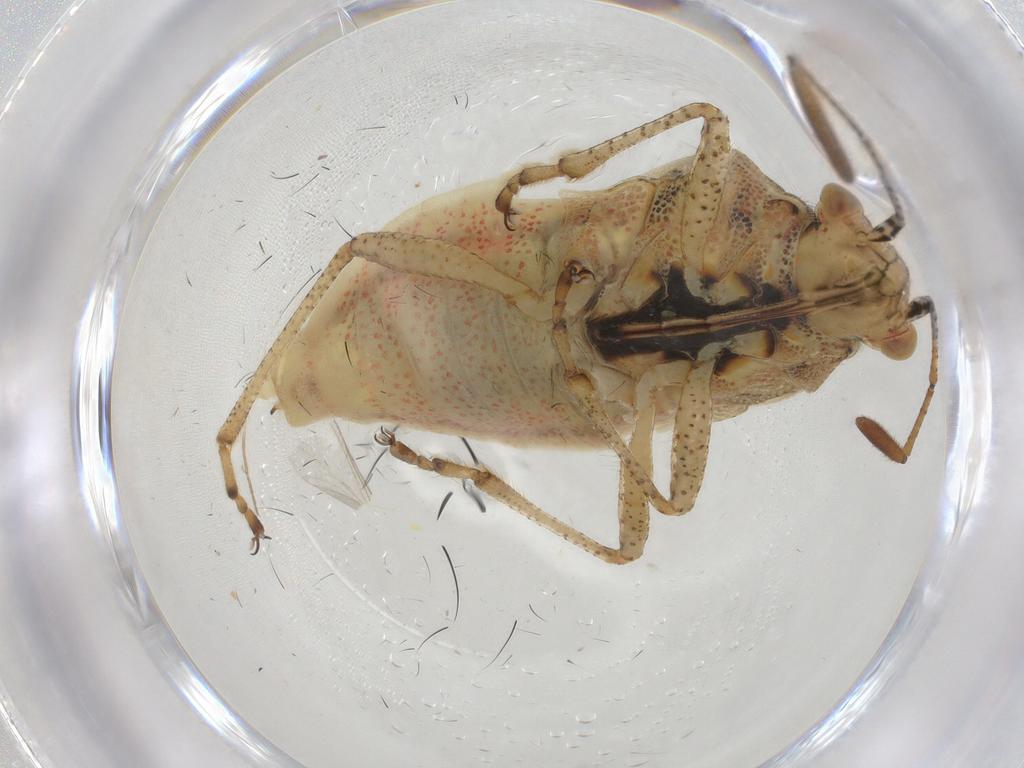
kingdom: Animalia
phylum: Arthropoda
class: Insecta
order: Hemiptera
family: Rhopalidae
